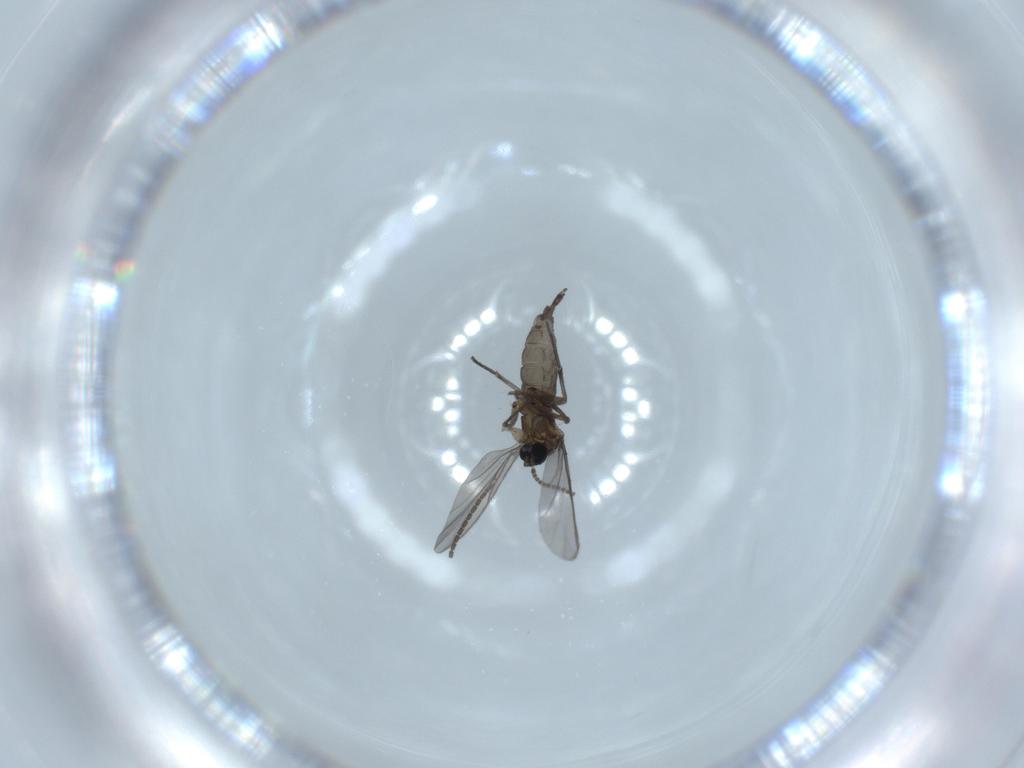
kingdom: Animalia
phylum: Arthropoda
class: Insecta
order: Diptera
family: Sciaridae
